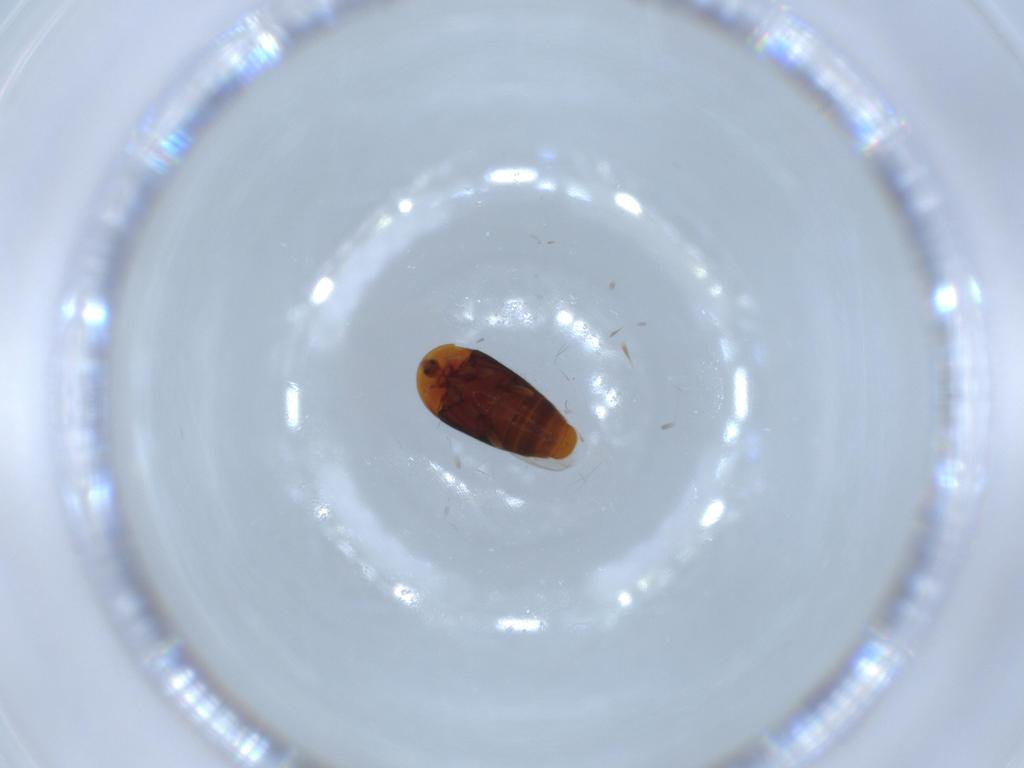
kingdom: Animalia
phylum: Arthropoda
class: Insecta
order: Coleoptera
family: Corylophidae
